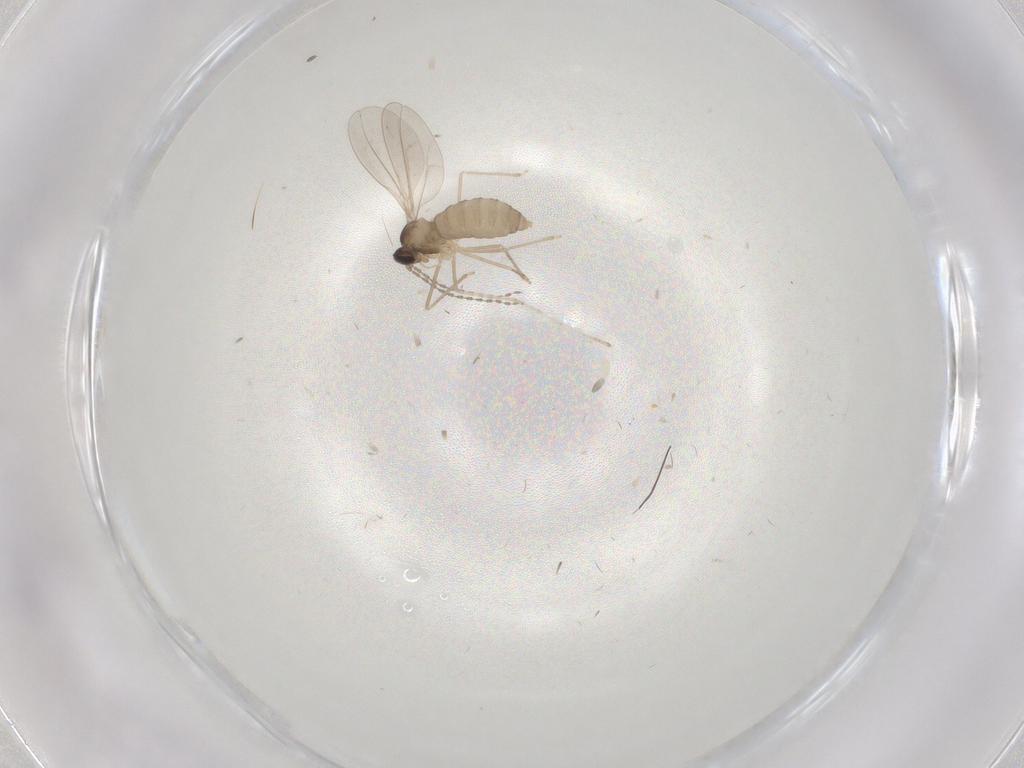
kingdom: Animalia
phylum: Arthropoda
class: Insecta
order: Diptera
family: Cecidomyiidae
